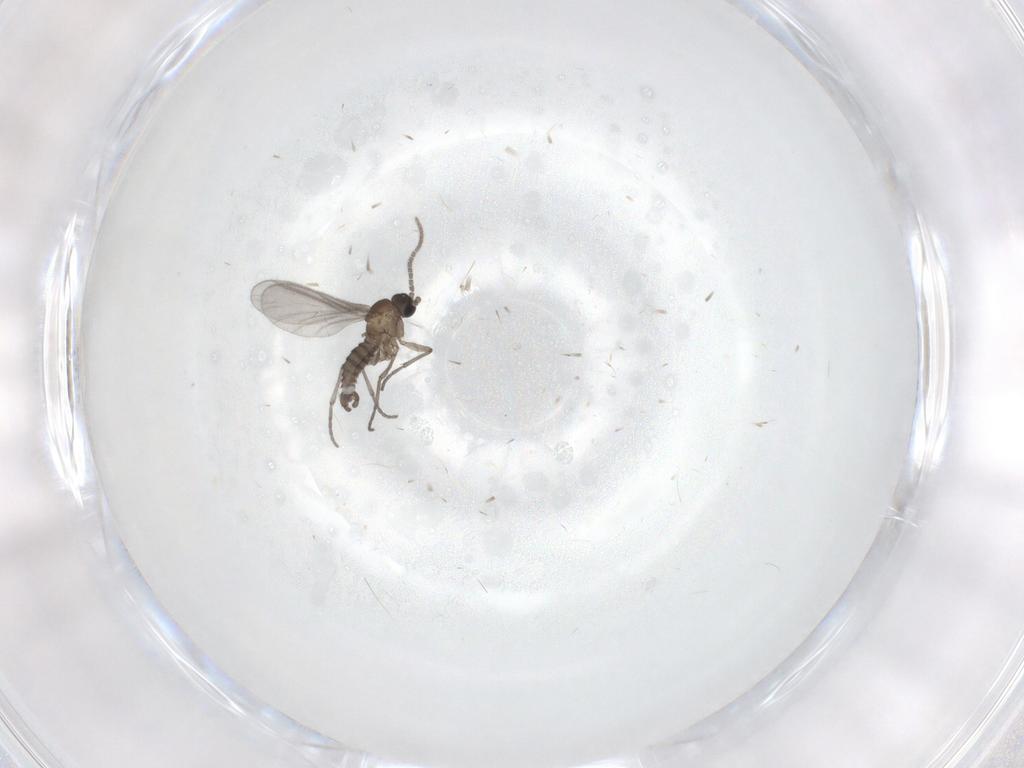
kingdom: Animalia
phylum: Arthropoda
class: Insecta
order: Diptera
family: Sciaridae
